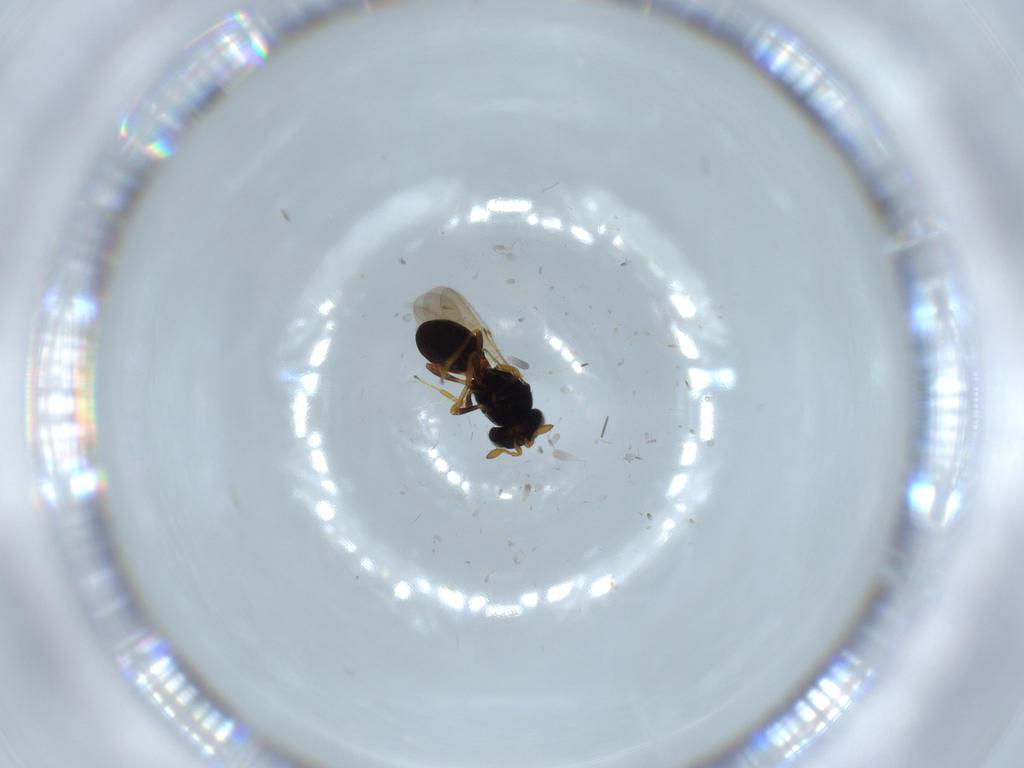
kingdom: Animalia
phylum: Arthropoda
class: Insecta
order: Hymenoptera
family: Scelionidae
